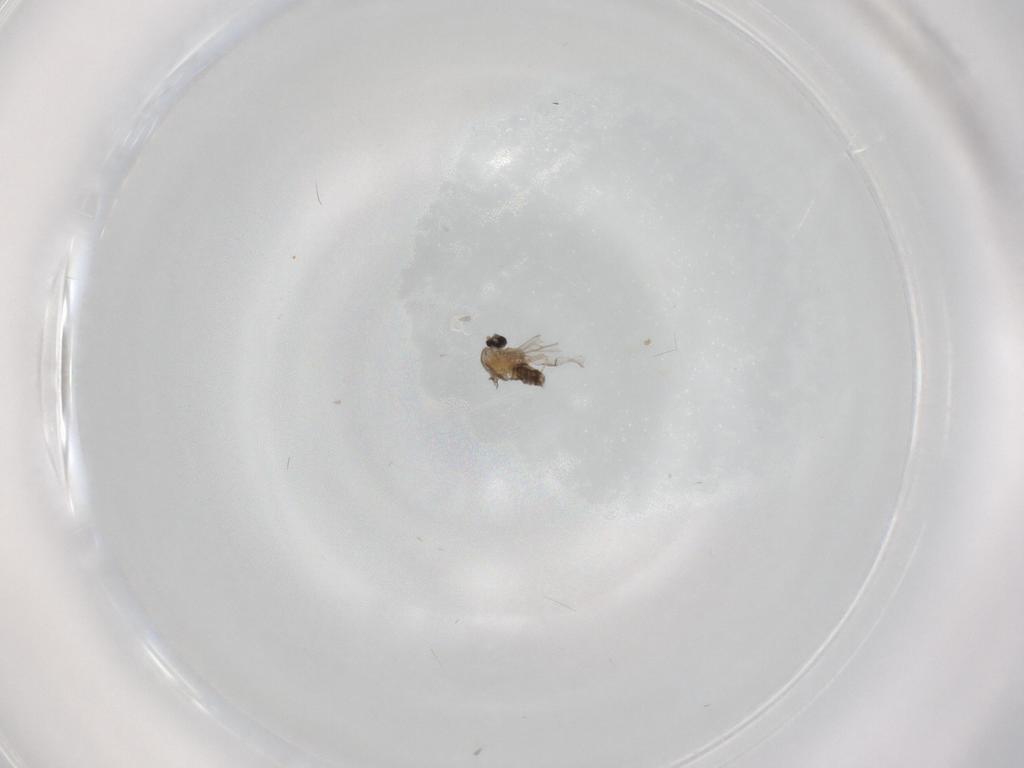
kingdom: Animalia
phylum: Arthropoda
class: Insecta
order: Diptera
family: Cecidomyiidae
